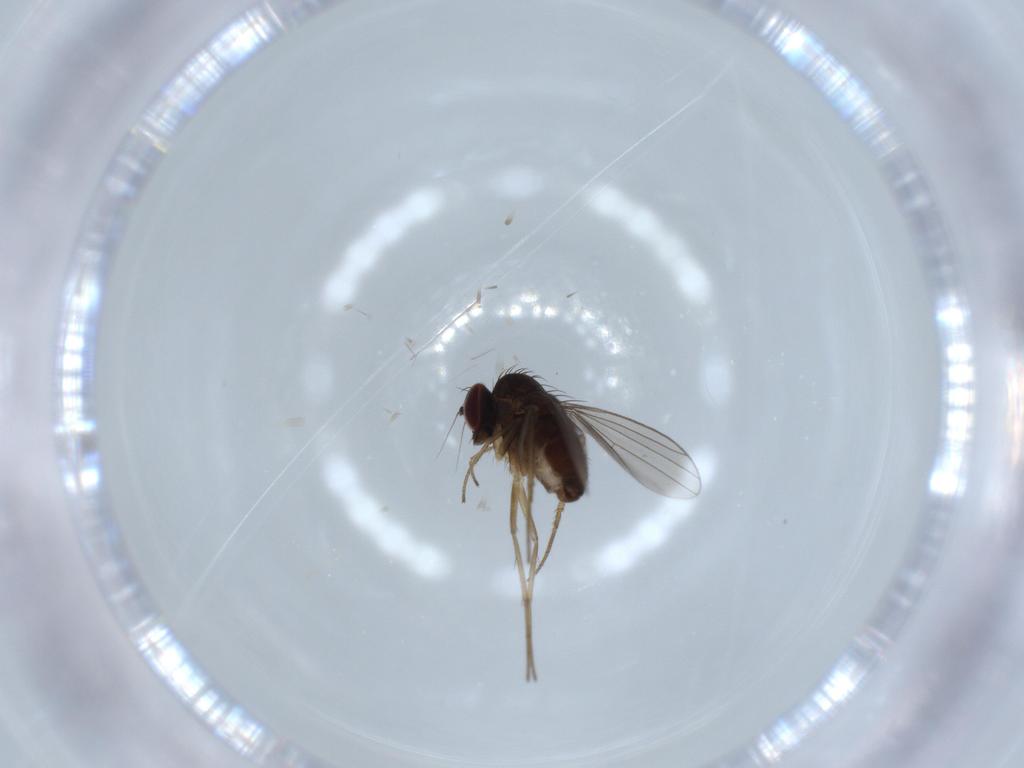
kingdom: Animalia
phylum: Arthropoda
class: Insecta
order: Diptera
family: Dolichopodidae
